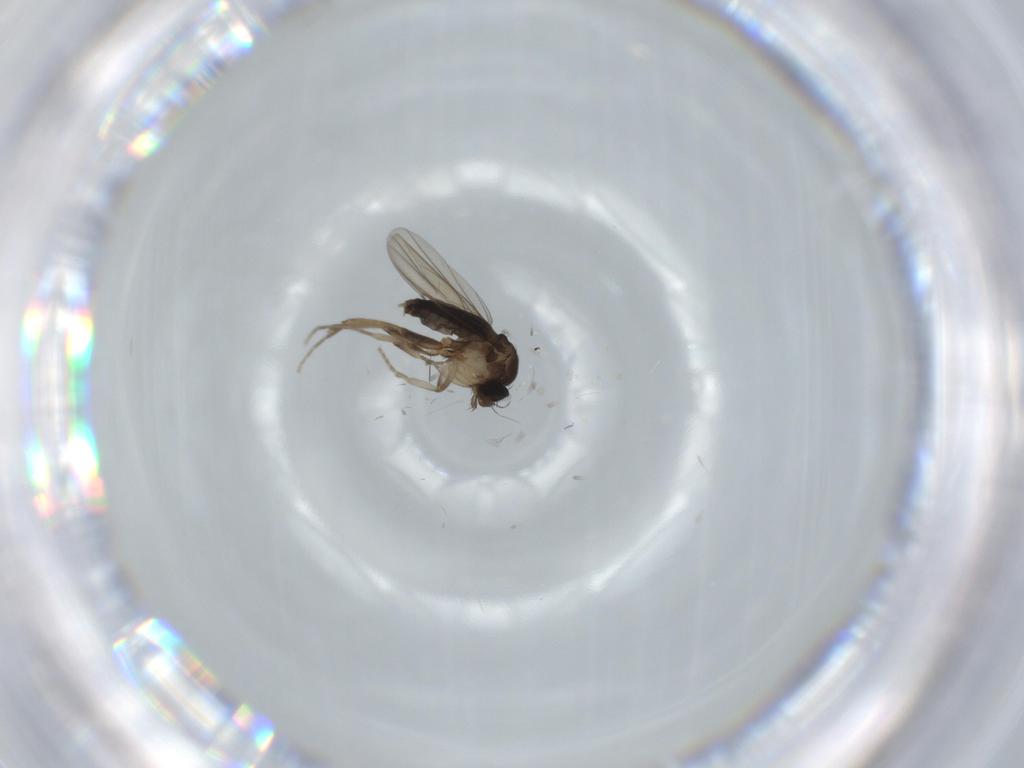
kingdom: Animalia
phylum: Arthropoda
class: Insecta
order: Diptera
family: Phoridae
